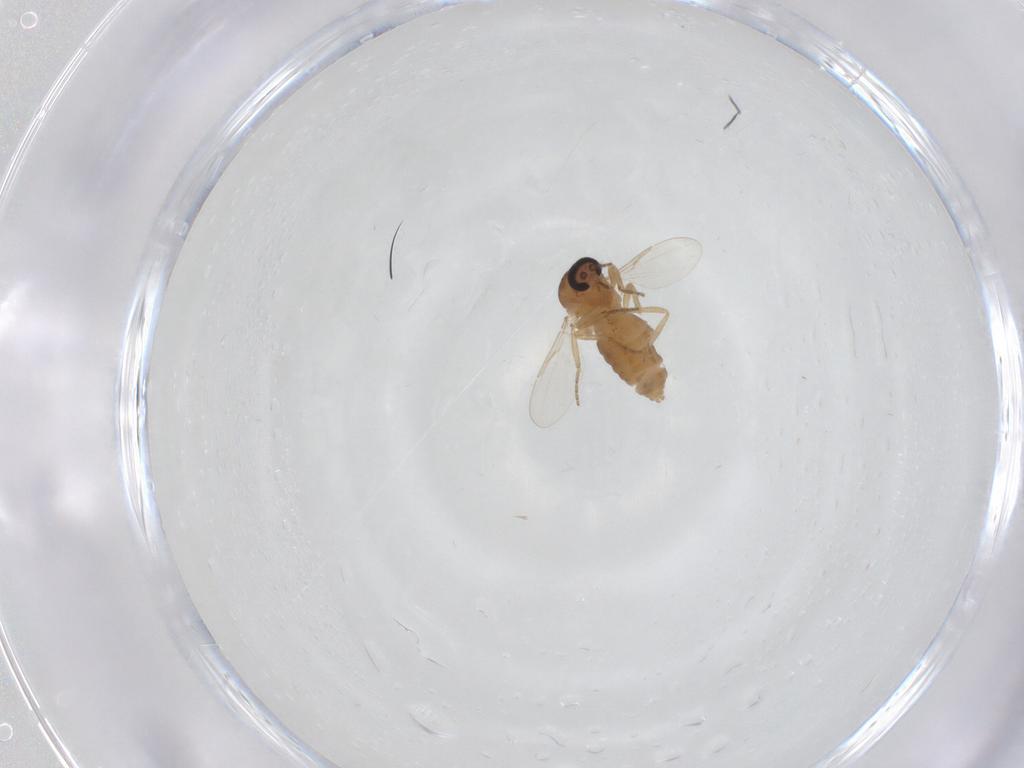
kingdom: Animalia
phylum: Arthropoda
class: Insecta
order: Diptera
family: Ceratopogonidae
